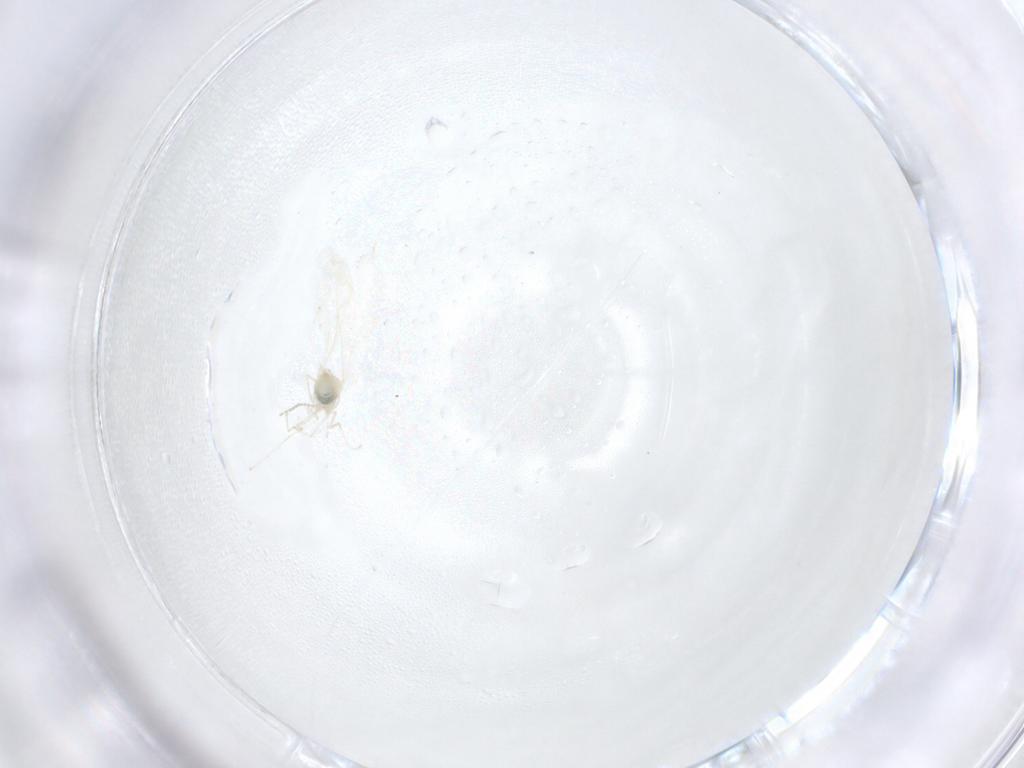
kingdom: Animalia
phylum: Arthropoda
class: Insecta
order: Diptera
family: Cecidomyiidae
